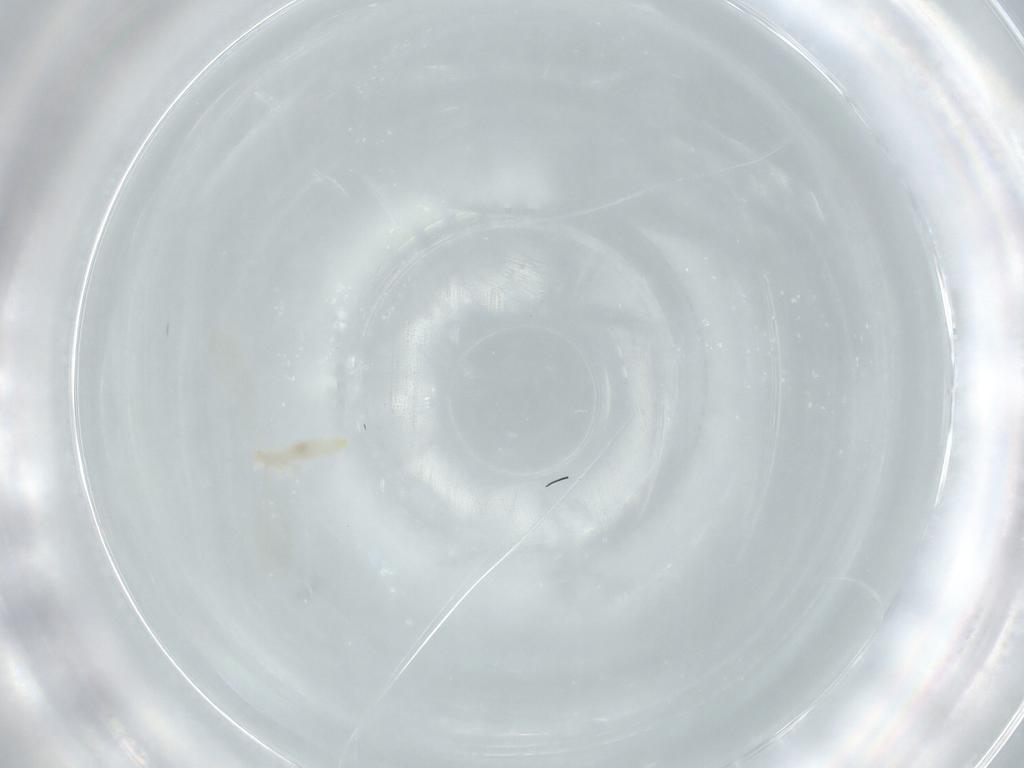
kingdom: Animalia
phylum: Arthropoda
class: Insecta
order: Diptera
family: Cecidomyiidae
